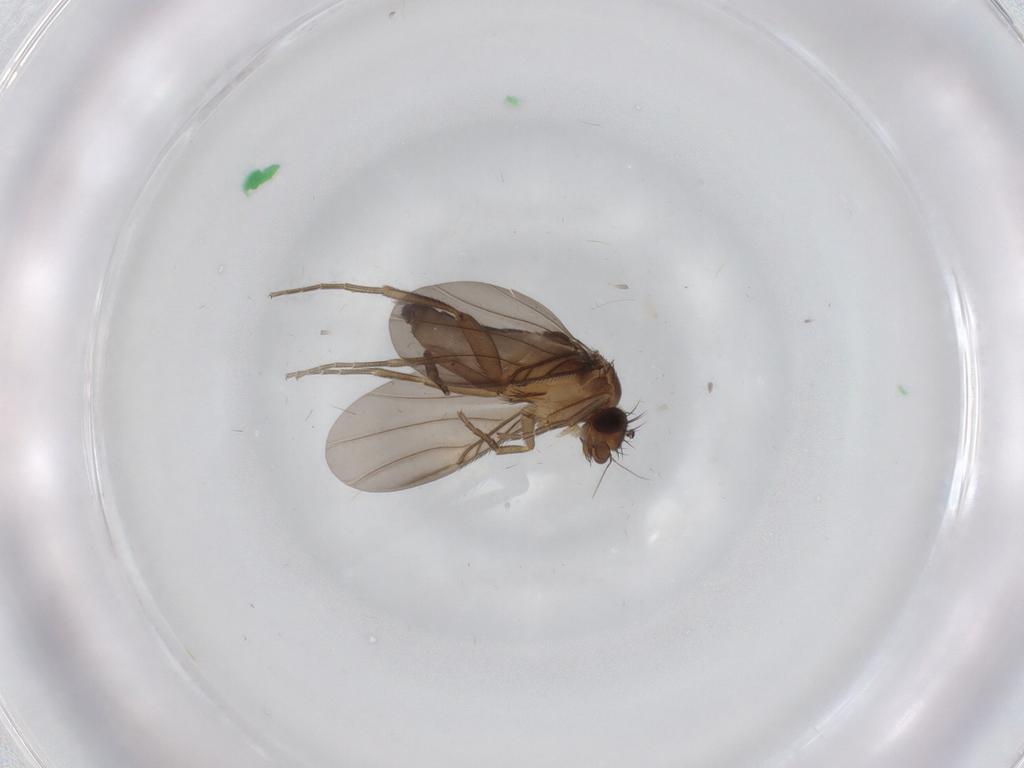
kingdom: Animalia
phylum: Arthropoda
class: Insecta
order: Diptera
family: Phoridae
